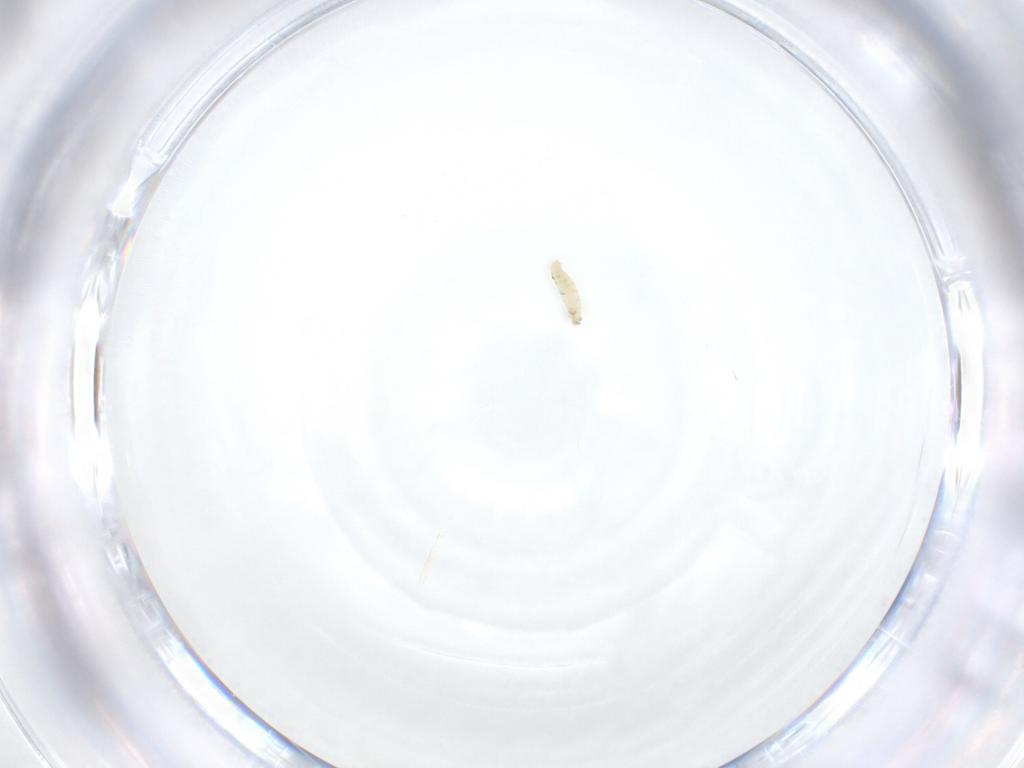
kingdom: Animalia
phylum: Arthropoda
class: Insecta
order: Diptera
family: Sarcophagidae
